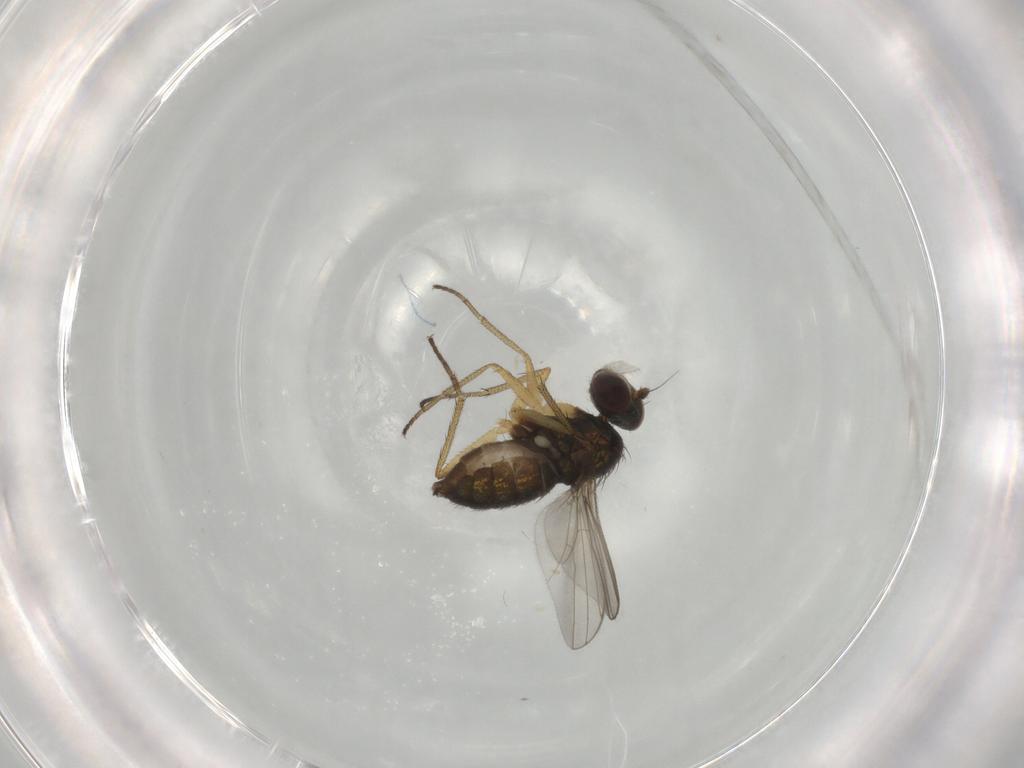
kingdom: Animalia
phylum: Arthropoda
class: Insecta
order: Diptera
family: Dolichopodidae
